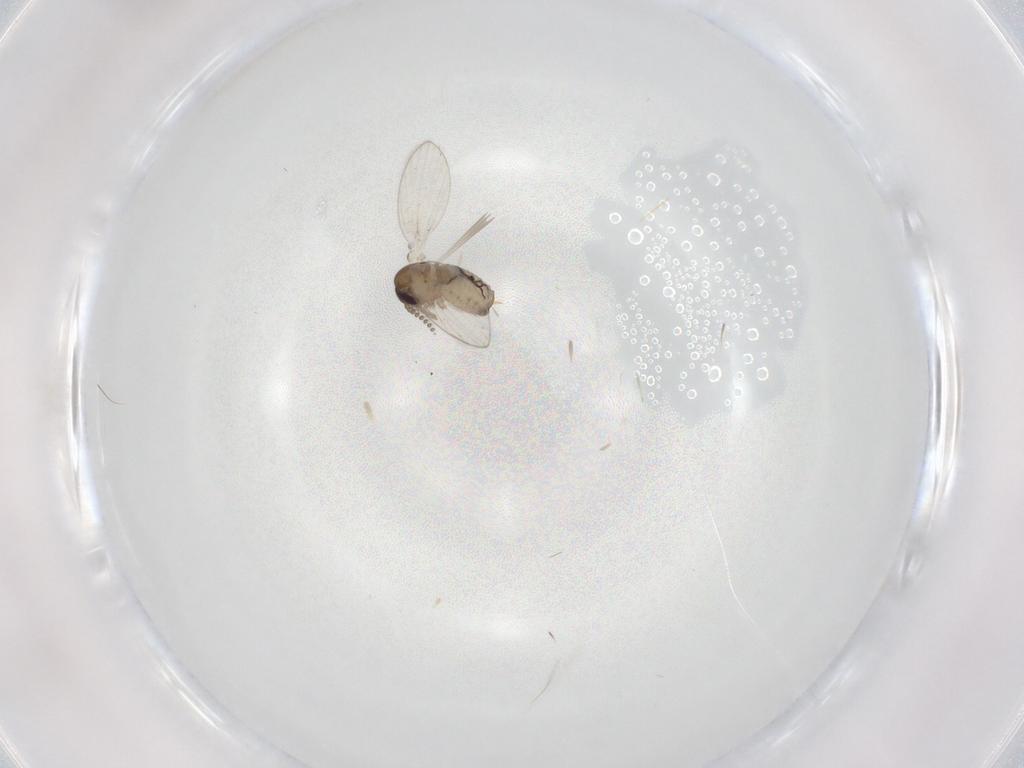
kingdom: Animalia
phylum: Arthropoda
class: Insecta
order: Diptera
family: Psychodidae
